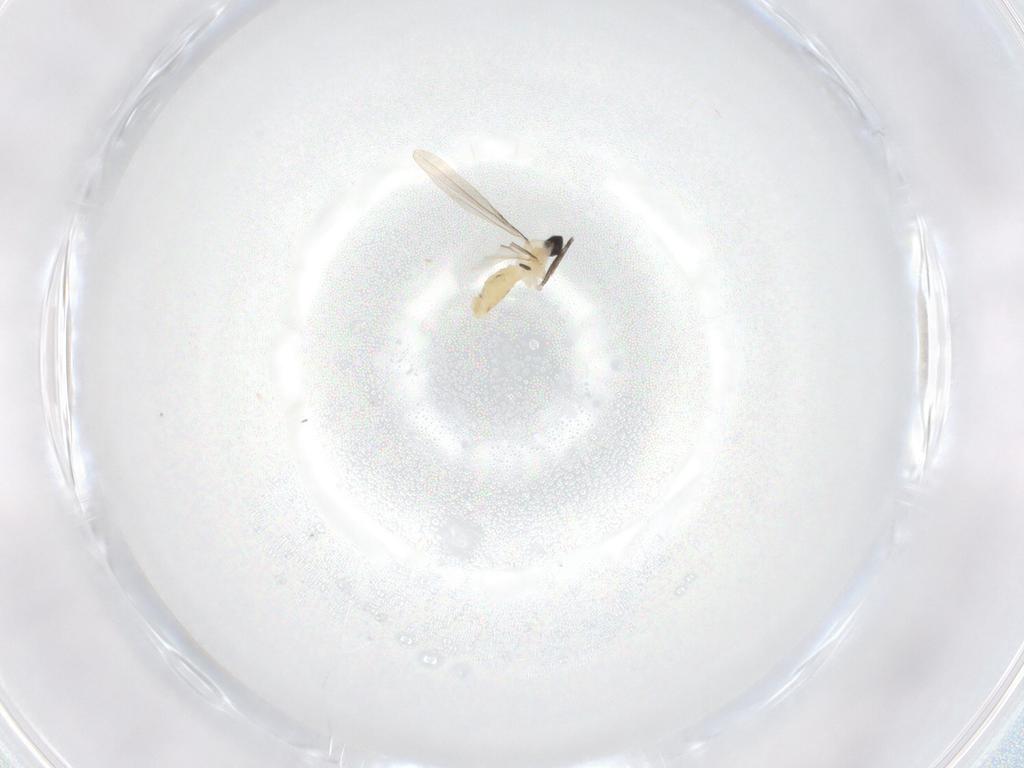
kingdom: Animalia
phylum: Arthropoda
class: Insecta
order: Diptera
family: Cecidomyiidae
